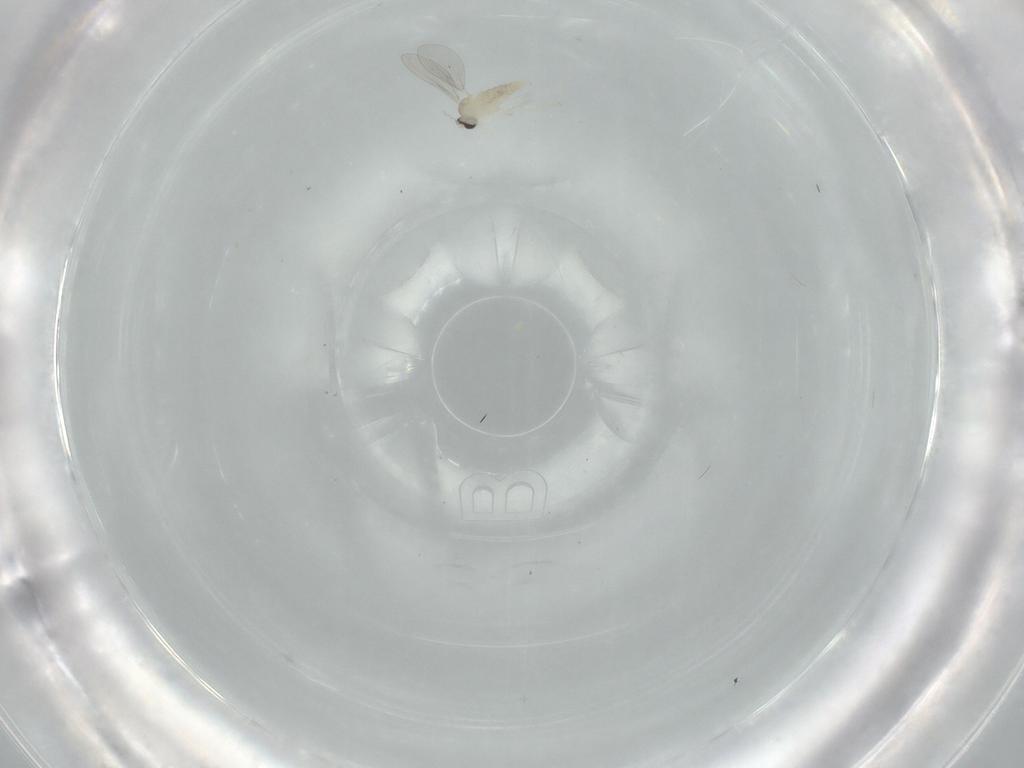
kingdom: Animalia
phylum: Arthropoda
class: Insecta
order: Diptera
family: Cecidomyiidae
